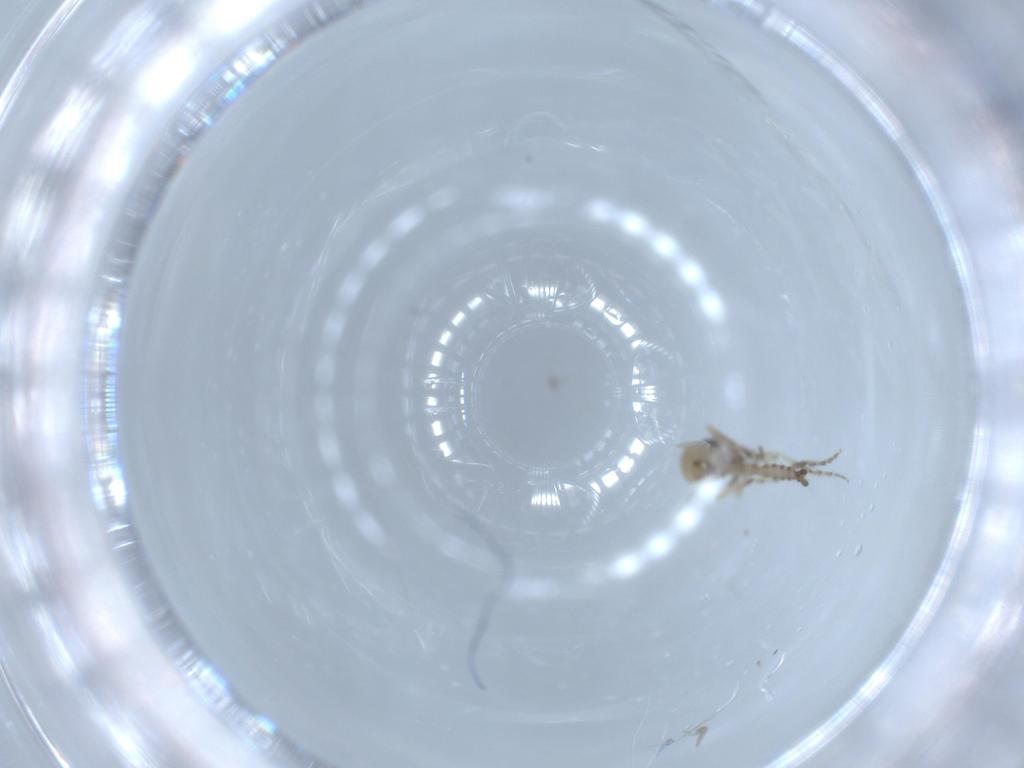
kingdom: Animalia
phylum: Arthropoda
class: Insecta
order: Diptera
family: Ceratopogonidae
